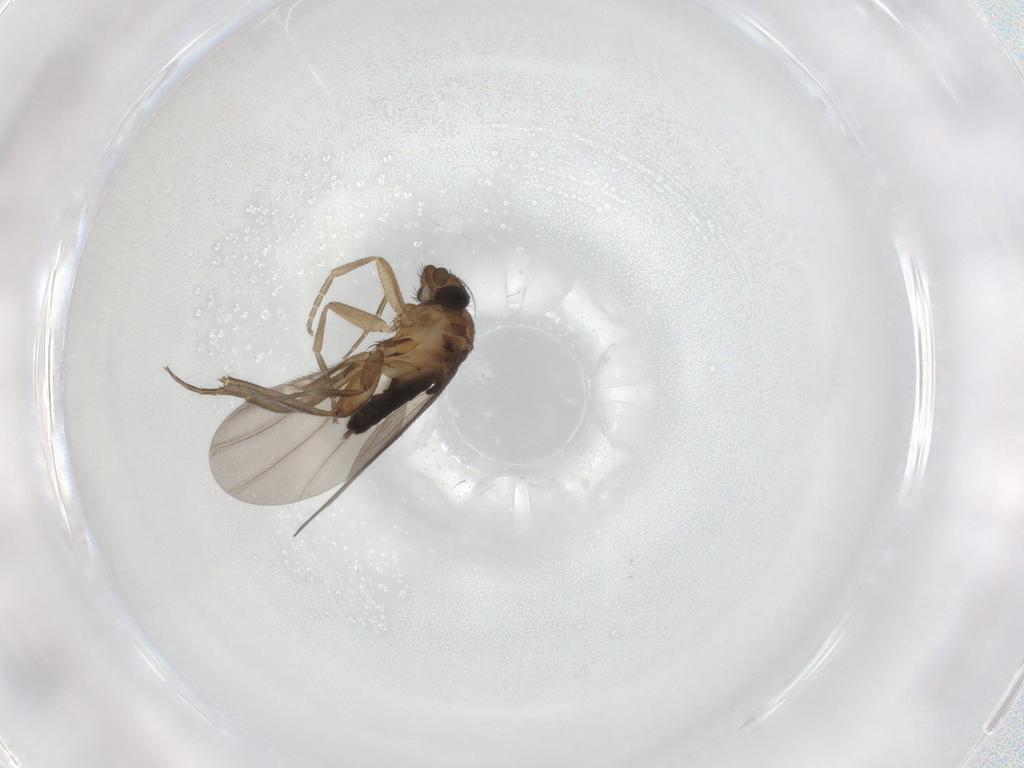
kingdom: Animalia
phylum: Arthropoda
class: Insecta
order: Diptera
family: Phoridae
